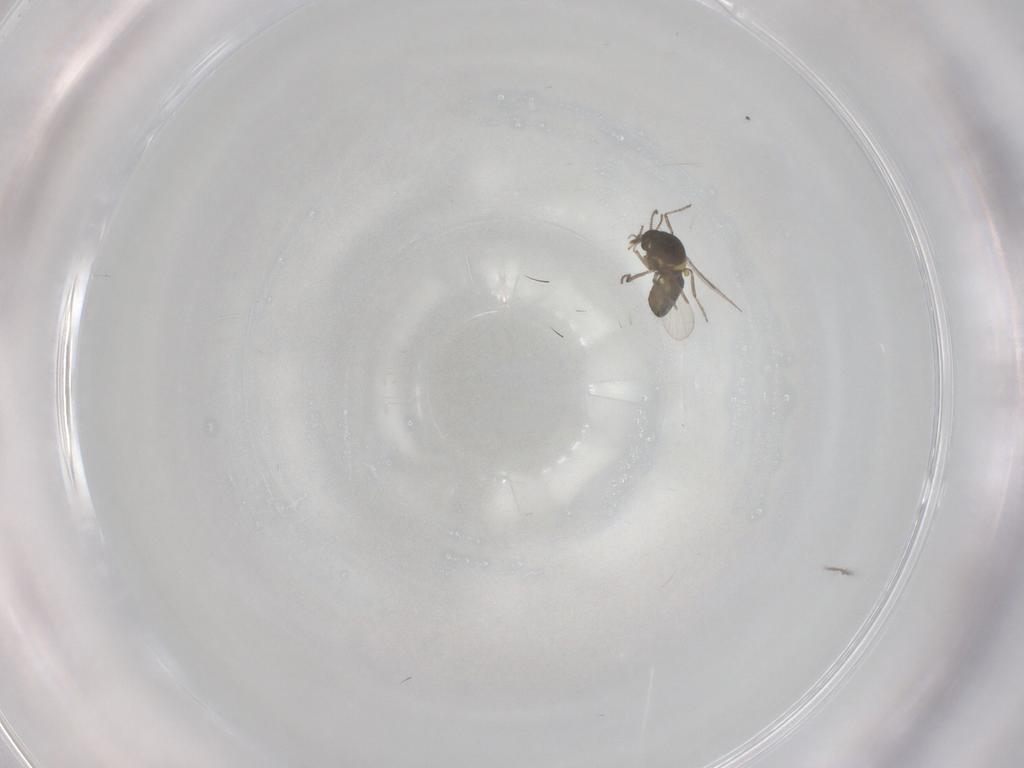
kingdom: Animalia
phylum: Arthropoda
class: Insecta
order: Diptera
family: Ceratopogonidae
